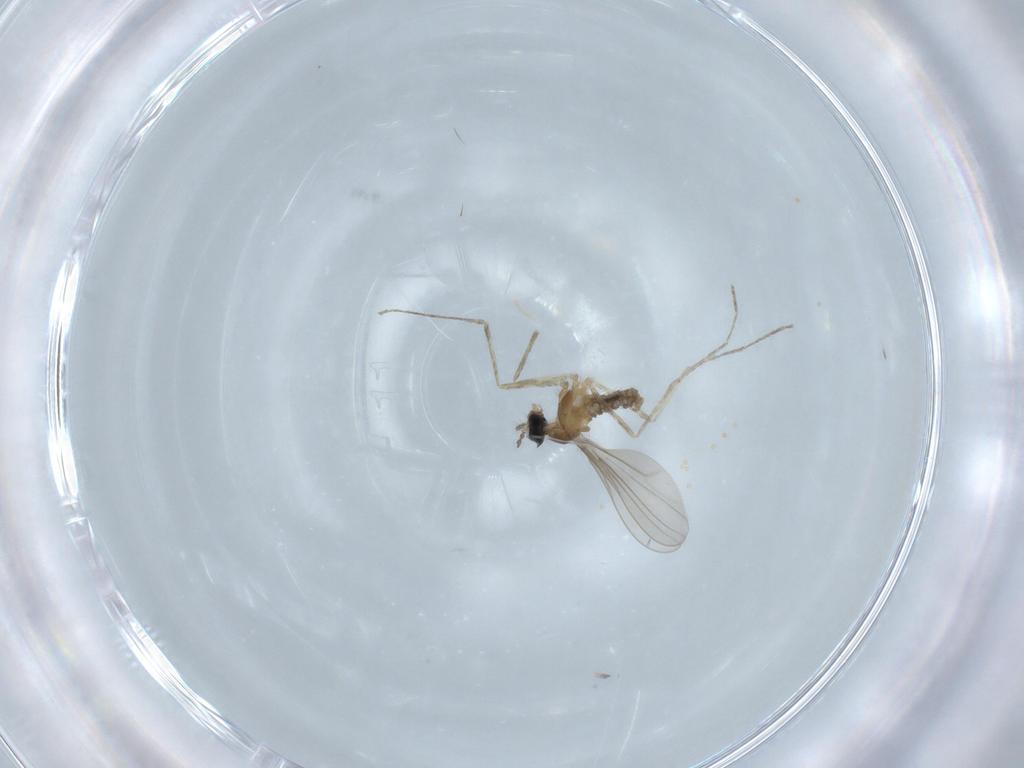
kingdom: Animalia
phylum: Arthropoda
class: Insecta
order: Diptera
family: Cecidomyiidae
